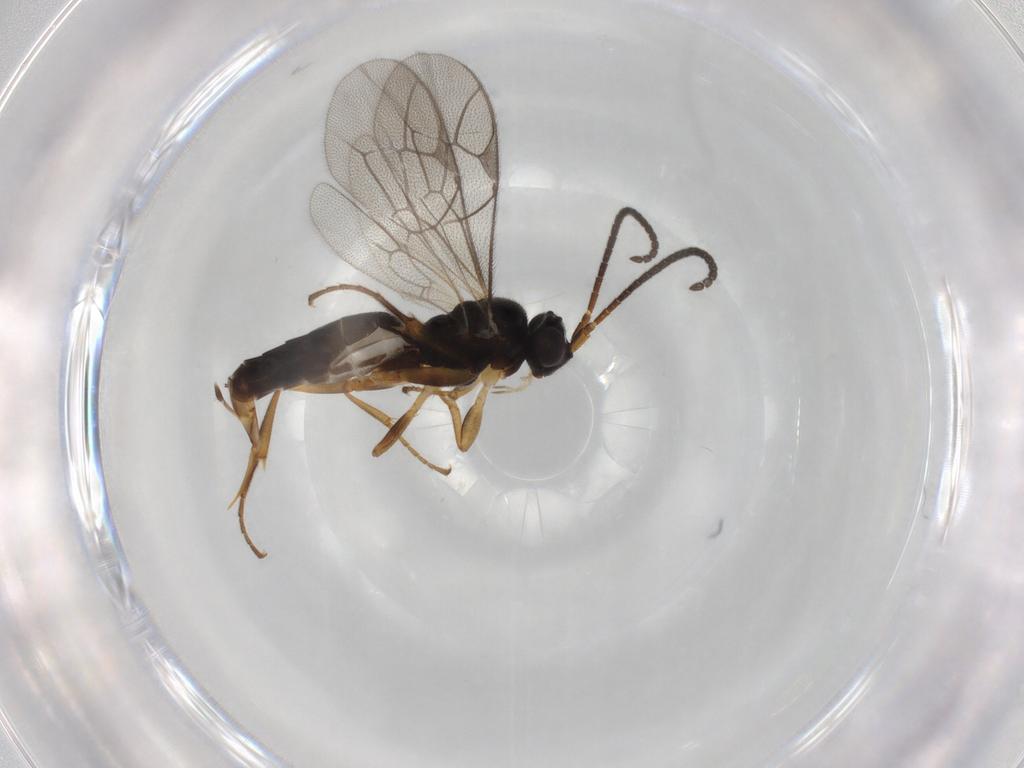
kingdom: Animalia
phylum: Arthropoda
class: Insecta
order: Hymenoptera
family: Ichneumonidae
